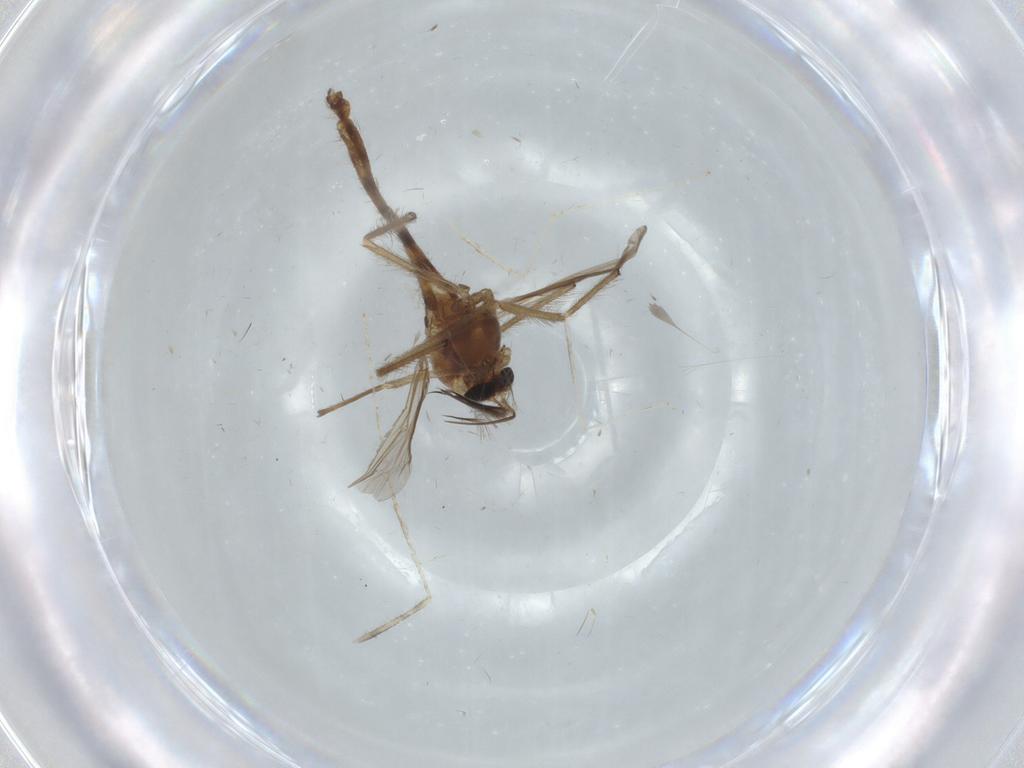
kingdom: Animalia
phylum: Arthropoda
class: Insecta
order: Diptera
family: Chironomidae
